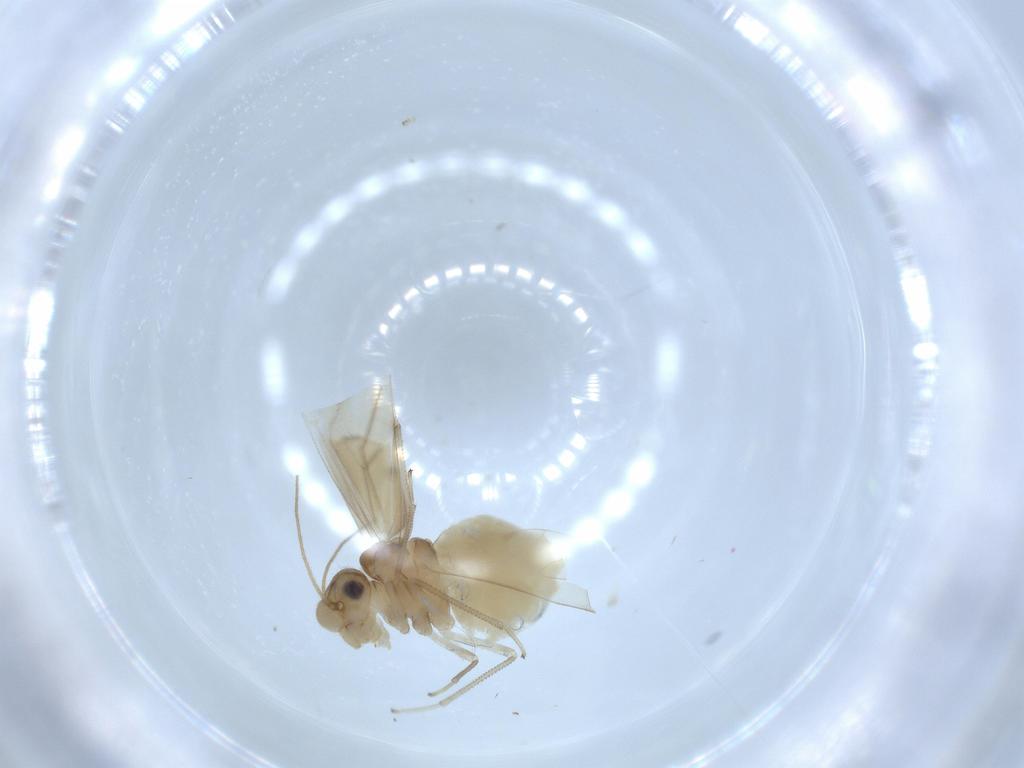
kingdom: Animalia
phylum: Arthropoda
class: Insecta
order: Psocodea
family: Caeciliusidae
